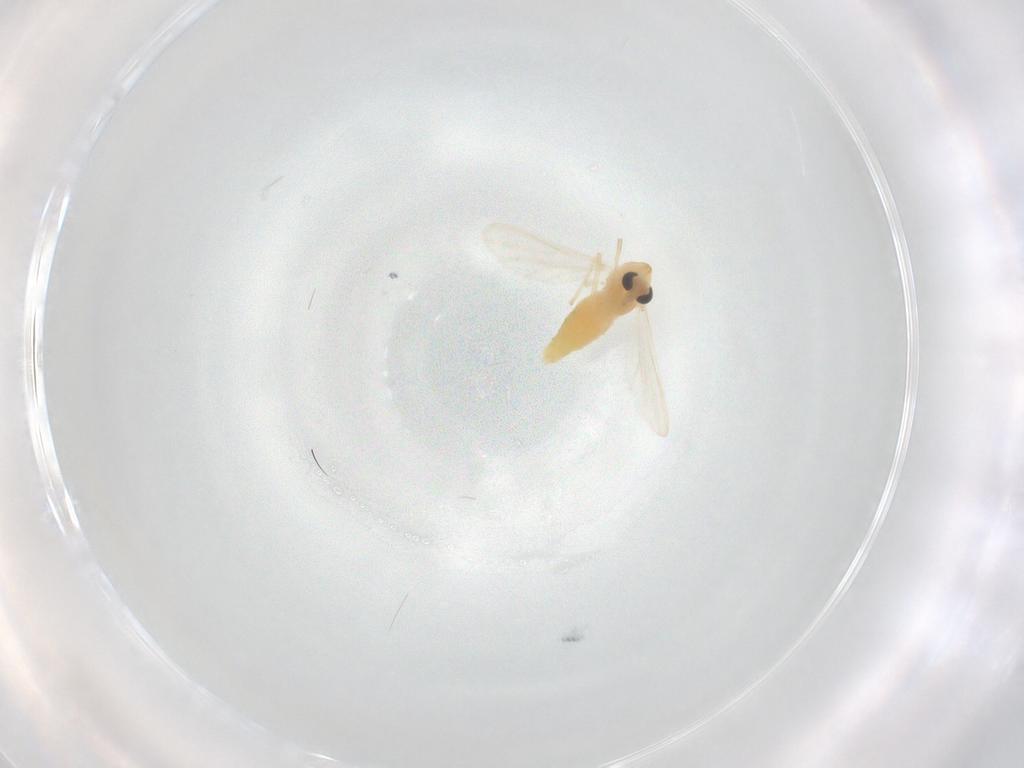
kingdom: Animalia
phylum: Arthropoda
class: Insecta
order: Diptera
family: Chironomidae
